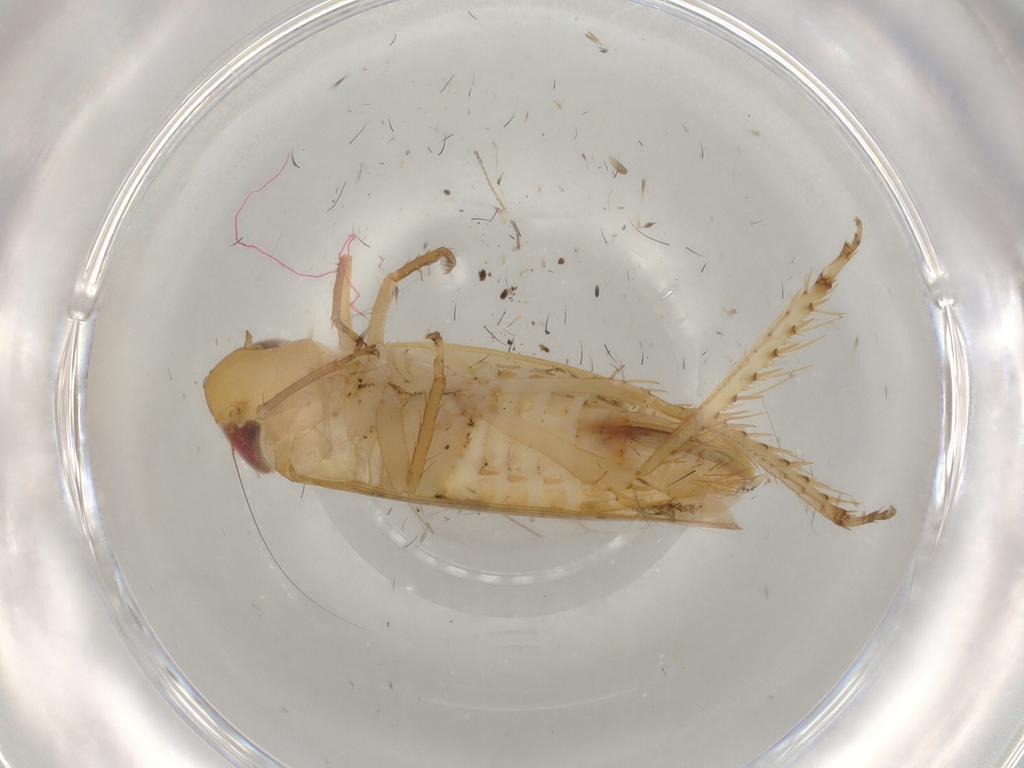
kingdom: Animalia
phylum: Arthropoda
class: Insecta
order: Hemiptera
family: Cicadellidae
